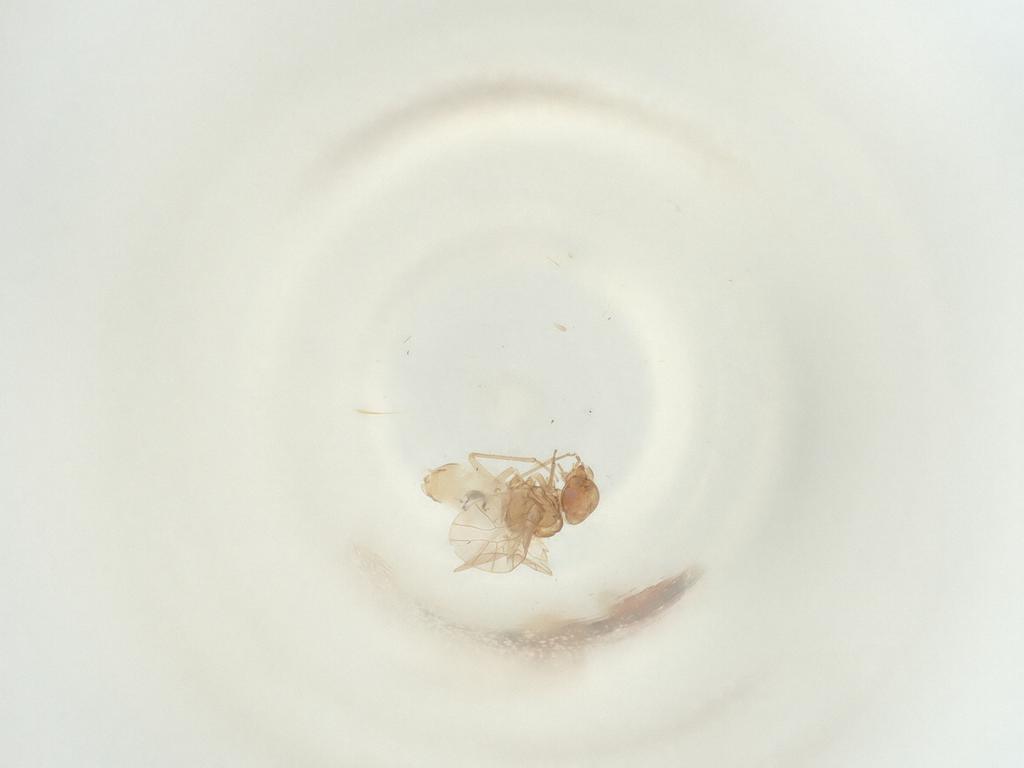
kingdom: Animalia
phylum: Arthropoda
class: Insecta
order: Psocodea
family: Lachesillidae
